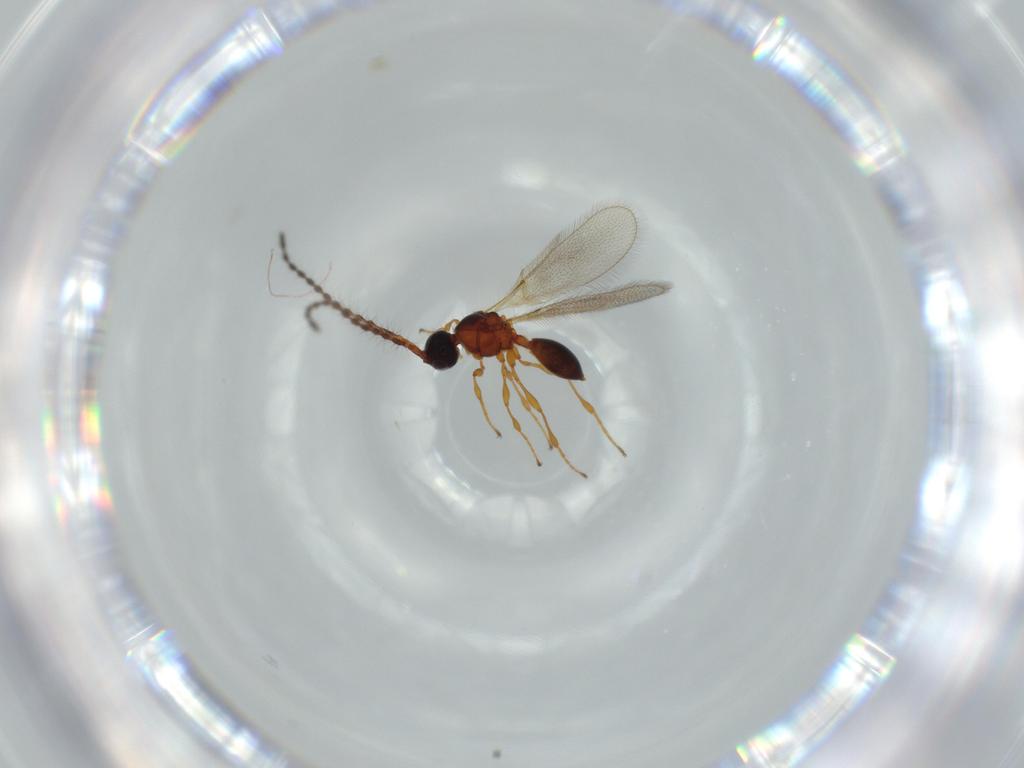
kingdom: Animalia
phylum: Arthropoda
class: Insecta
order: Hymenoptera
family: Diapriidae
